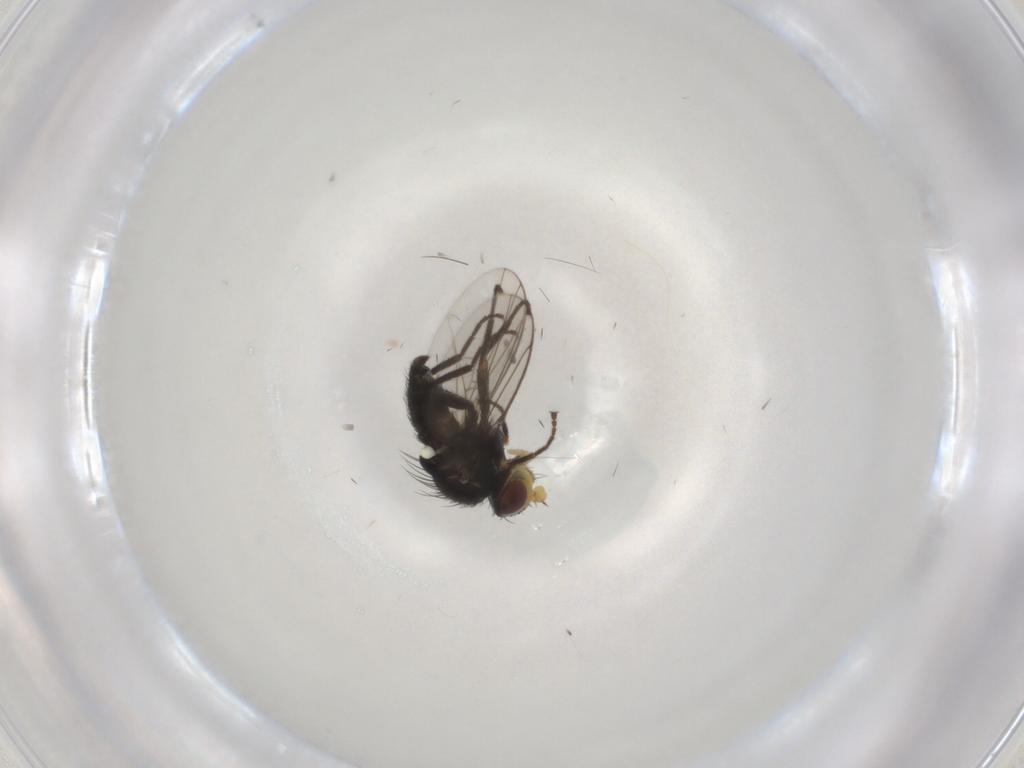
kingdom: Animalia
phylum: Arthropoda
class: Insecta
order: Diptera
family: Agromyzidae
